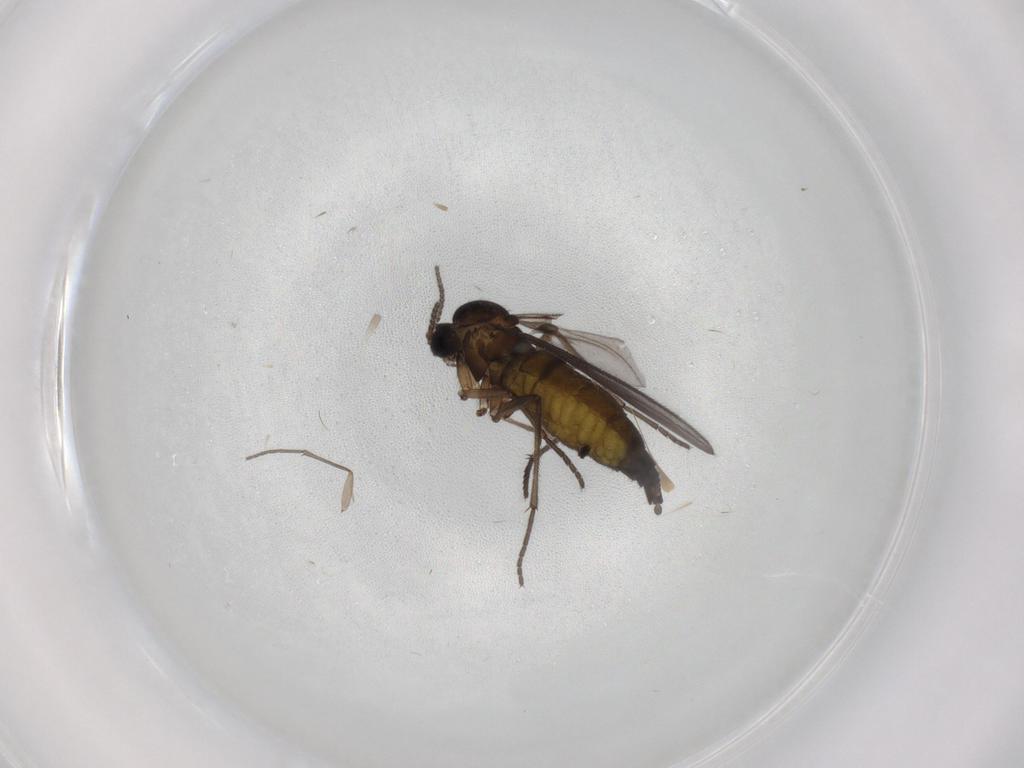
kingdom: Animalia
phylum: Arthropoda
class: Insecta
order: Diptera
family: Sciaridae
